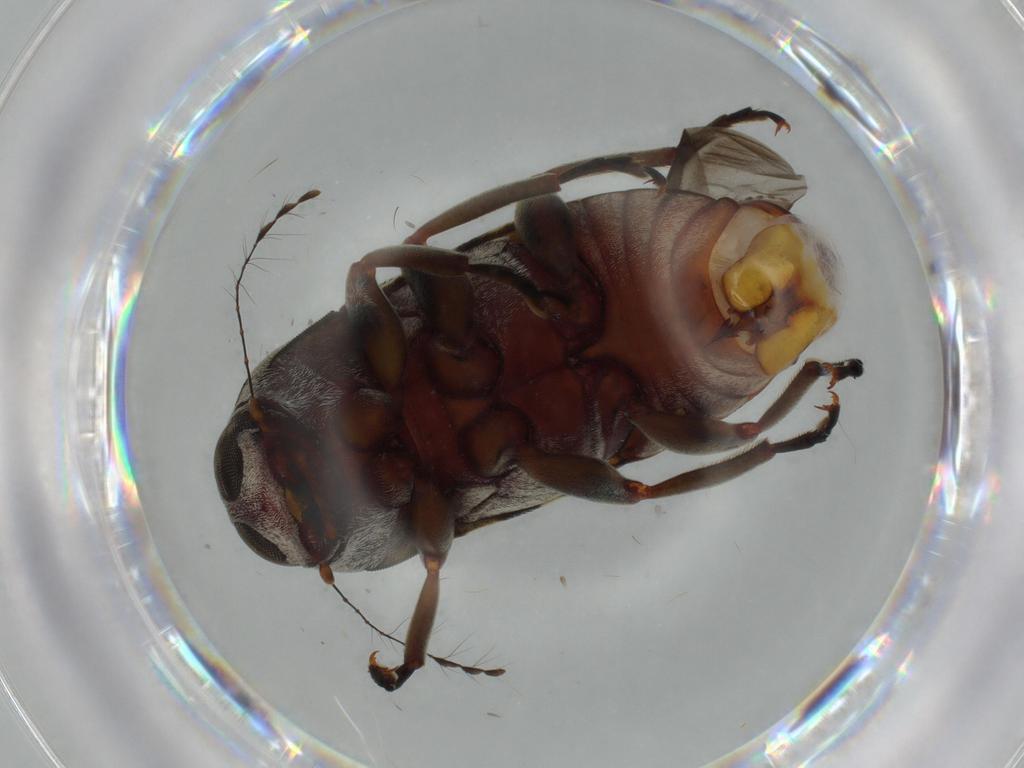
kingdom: Animalia
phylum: Arthropoda
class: Insecta
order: Coleoptera
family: Anthribidae
